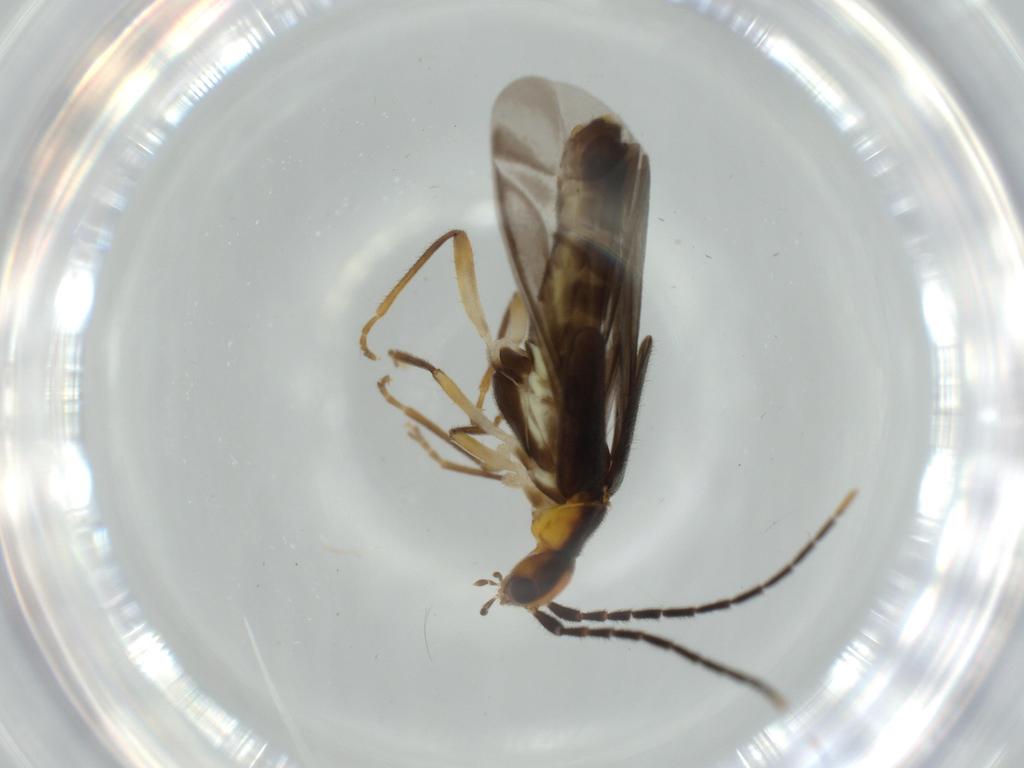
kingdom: Animalia
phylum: Arthropoda
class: Insecta
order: Coleoptera
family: Cantharidae
